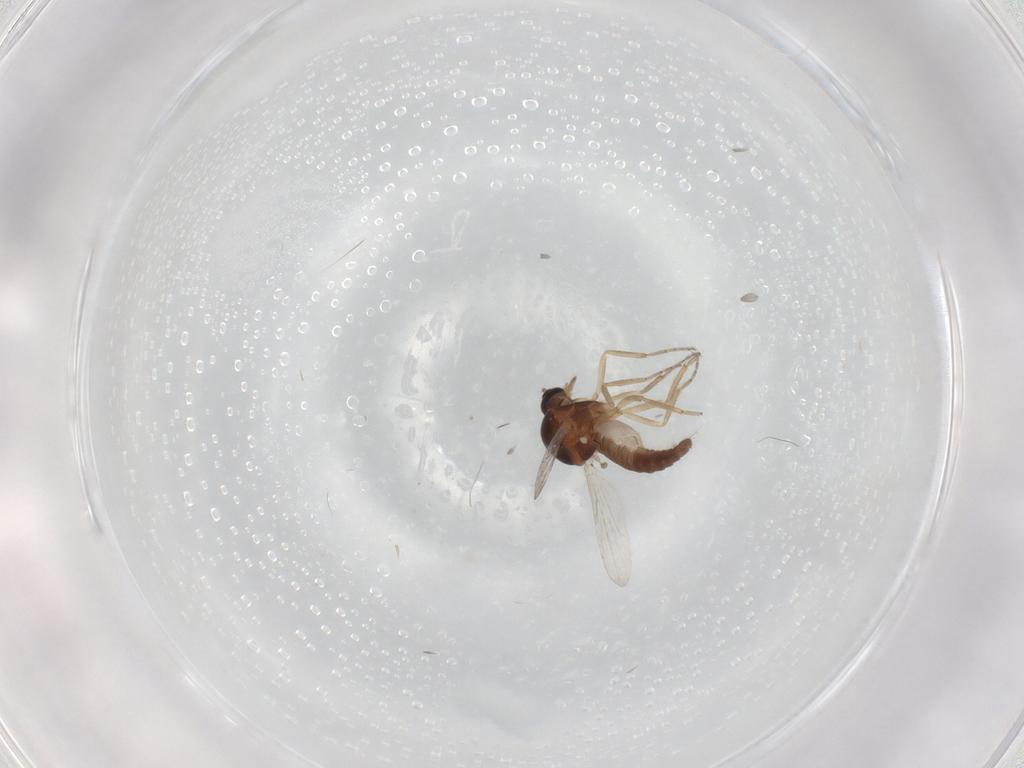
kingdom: Animalia
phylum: Arthropoda
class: Insecta
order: Diptera
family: Ceratopogonidae
